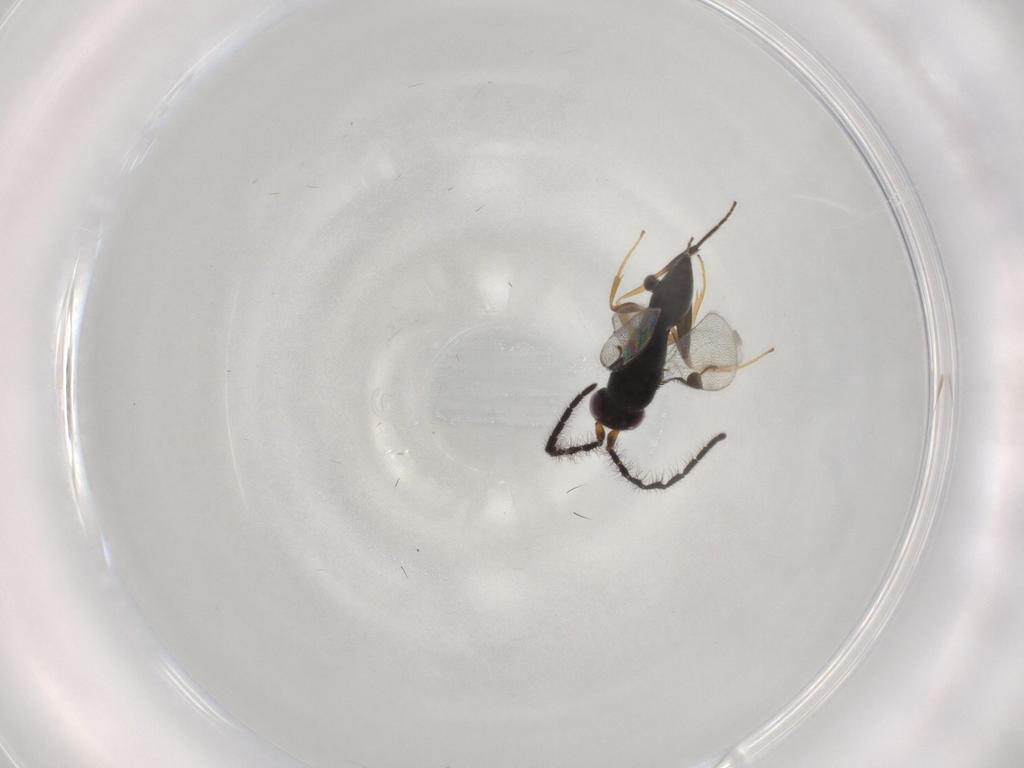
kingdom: Animalia
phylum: Arthropoda
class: Insecta
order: Hymenoptera
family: Megaspilidae
